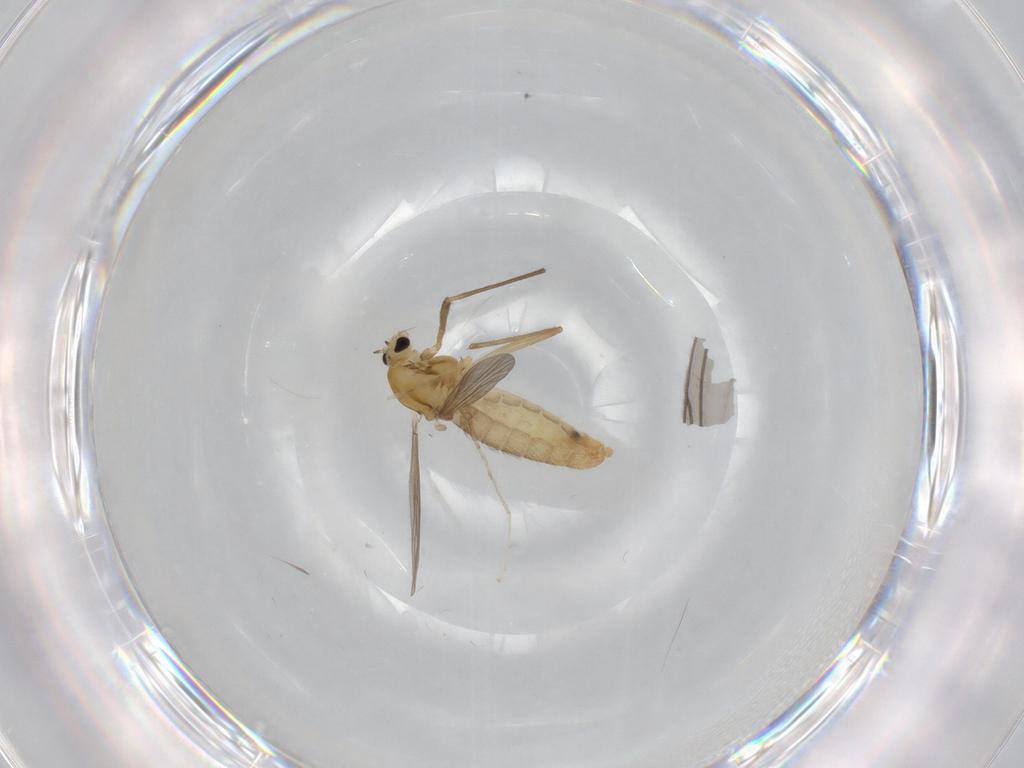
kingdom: Animalia
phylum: Arthropoda
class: Insecta
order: Diptera
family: Chironomidae
